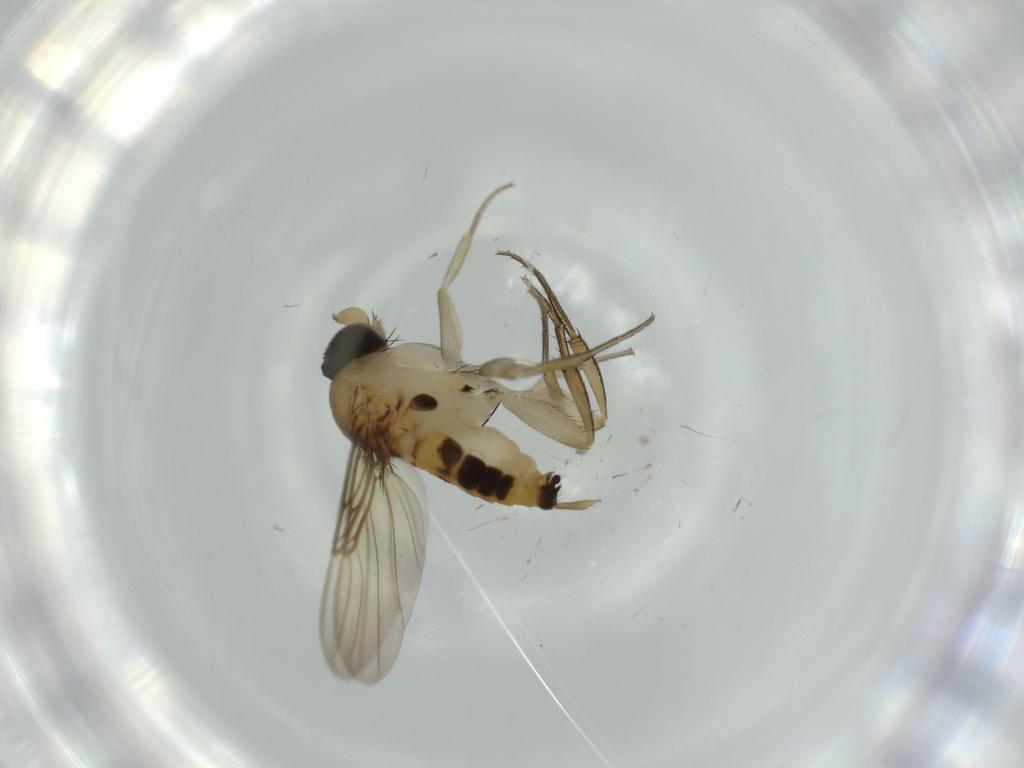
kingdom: Animalia
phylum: Arthropoda
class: Insecta
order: Diptera
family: Phoridae
